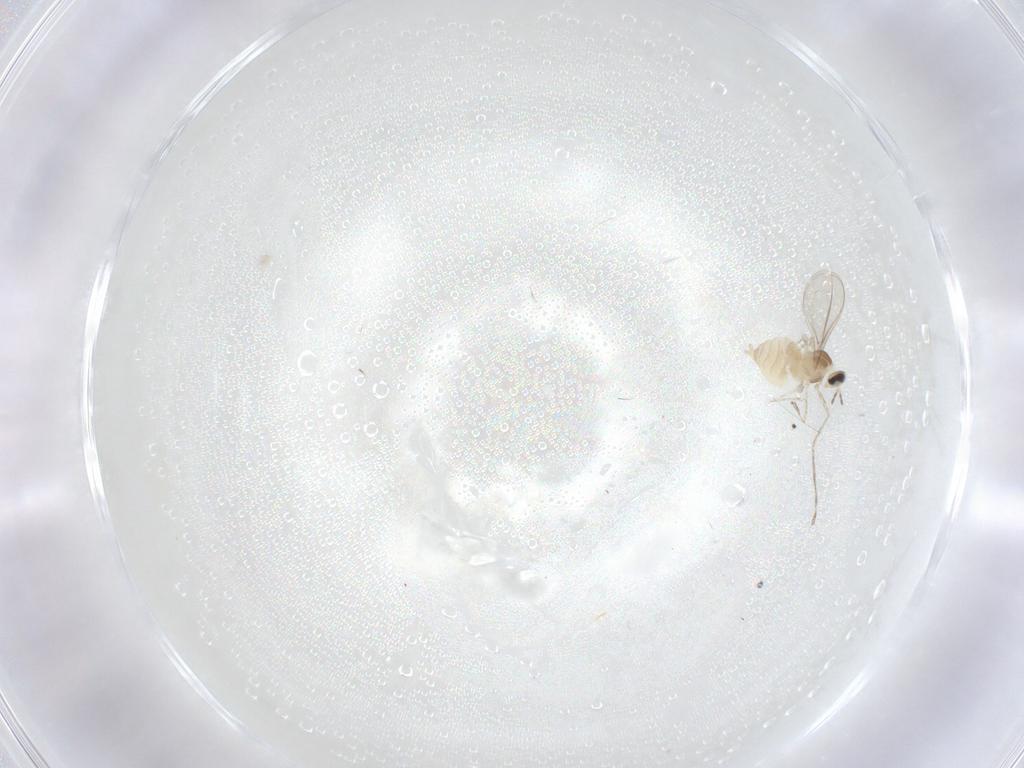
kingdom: Animalia
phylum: Arthropoda
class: Insecta
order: Diptera
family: Cecidomyiidae
